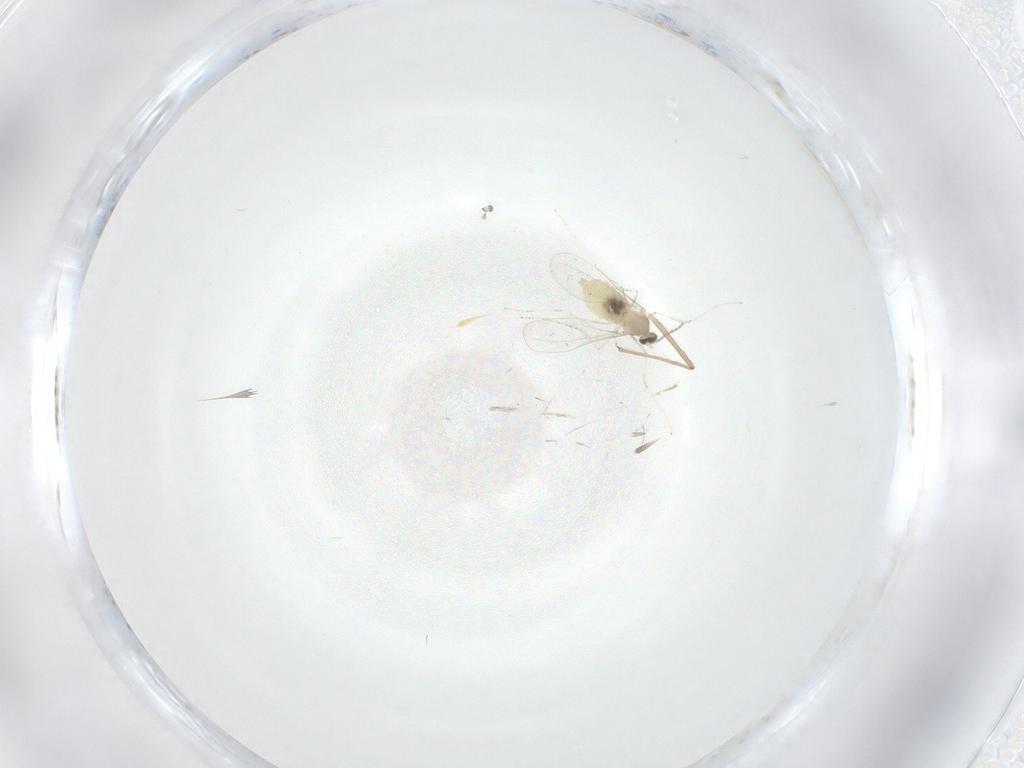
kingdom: Animalia
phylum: Arthropoda
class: Insecta
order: Diptera
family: Cecidomyiidae
